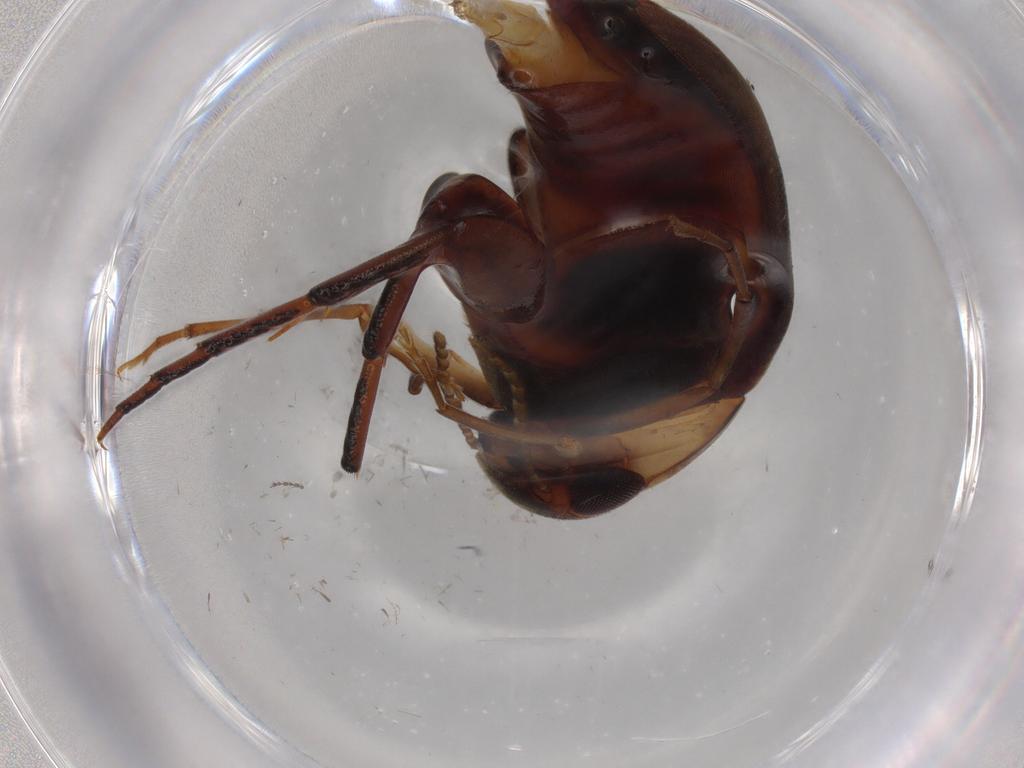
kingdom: Animalia
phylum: Arthropoda
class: Insecta
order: Coleoptera
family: Mordellidae
